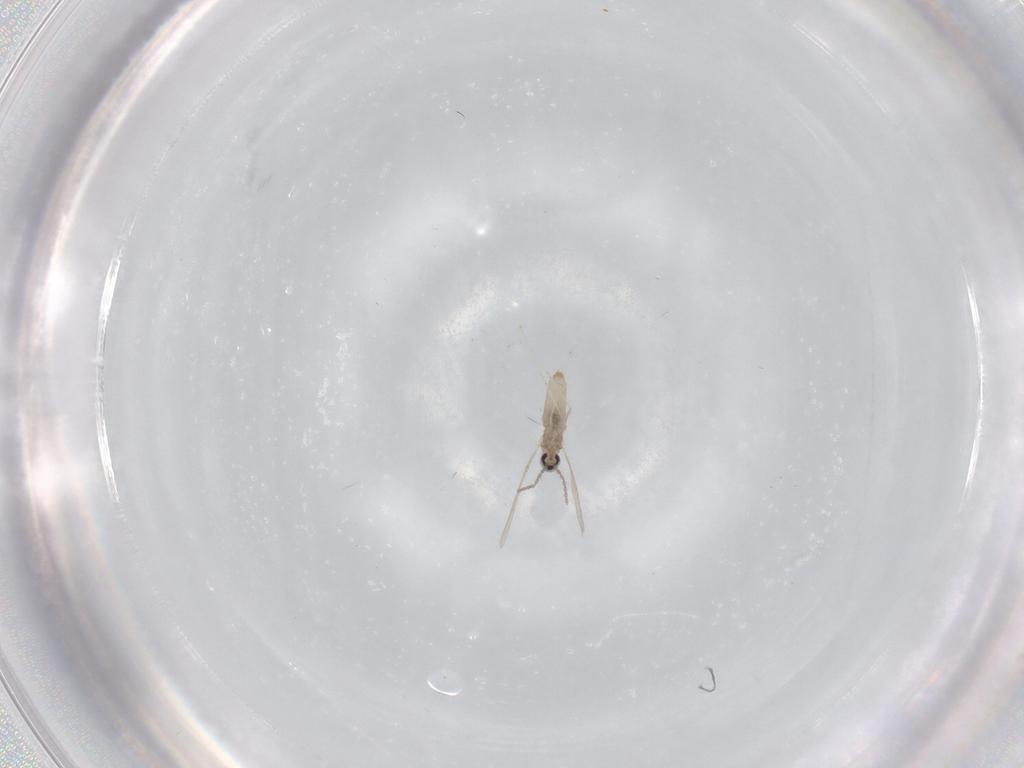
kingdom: Animalia
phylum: Arthropoda
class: Insecta
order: Diptera
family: Cecidomyiidae
